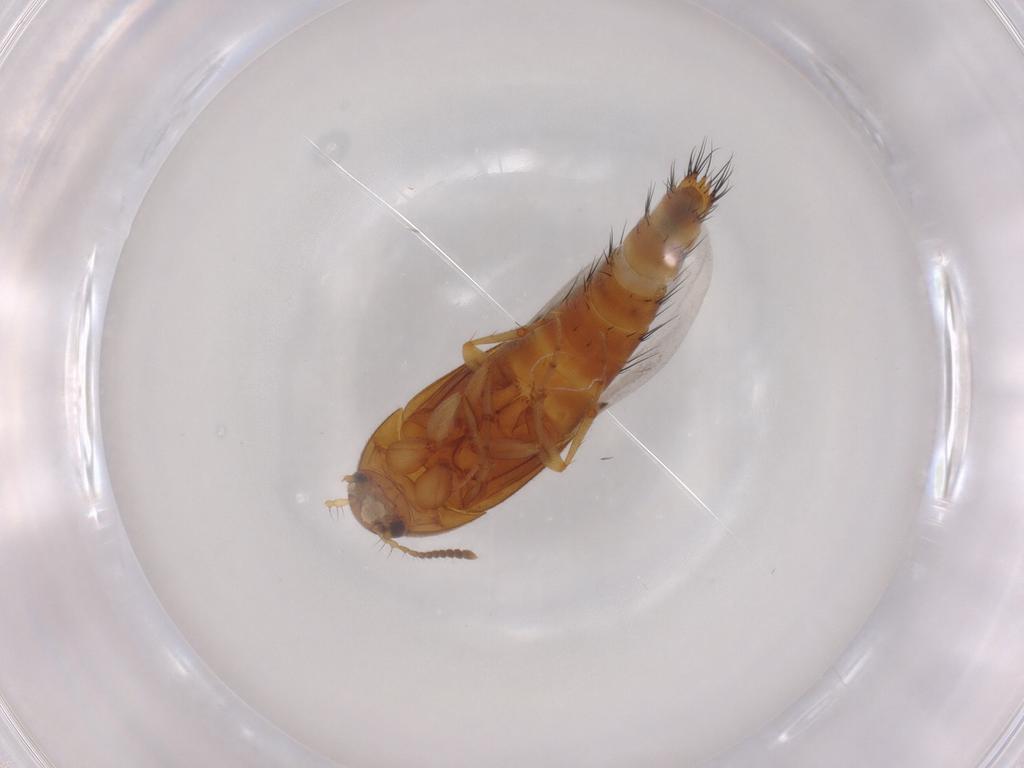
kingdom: Animalia
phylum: Arthropoda
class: Insecta
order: Coleoptera
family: Staphylinidae
